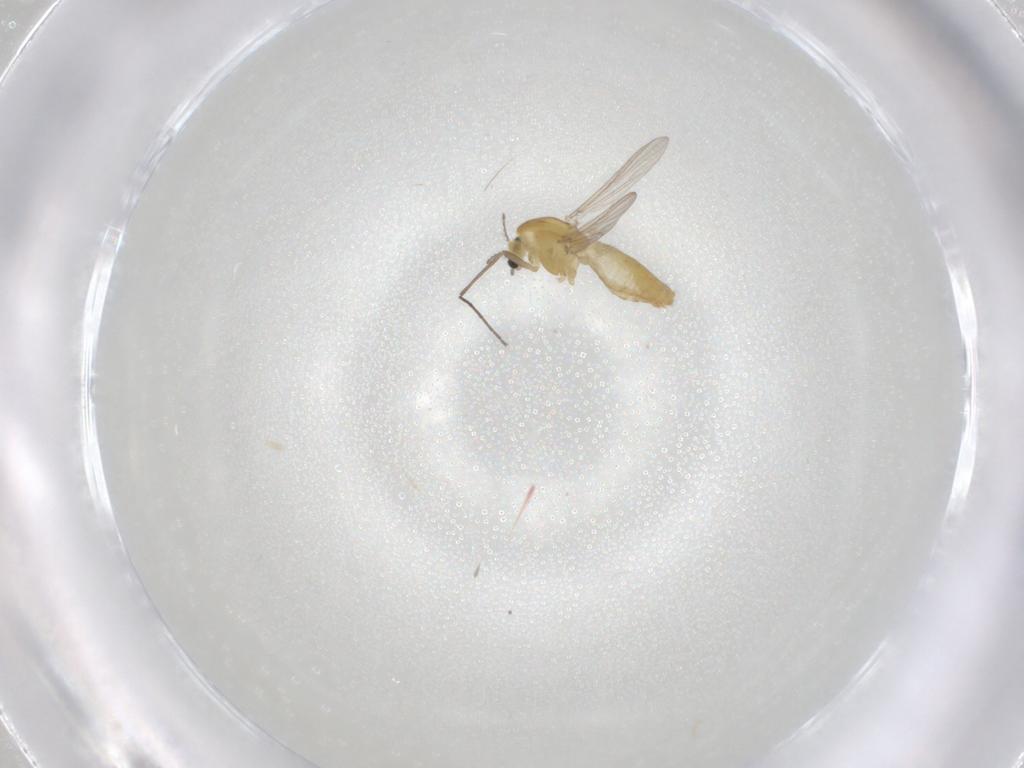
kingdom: Animalia
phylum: Arthropoda
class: Insecta
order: Diptera
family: Chironomidae
